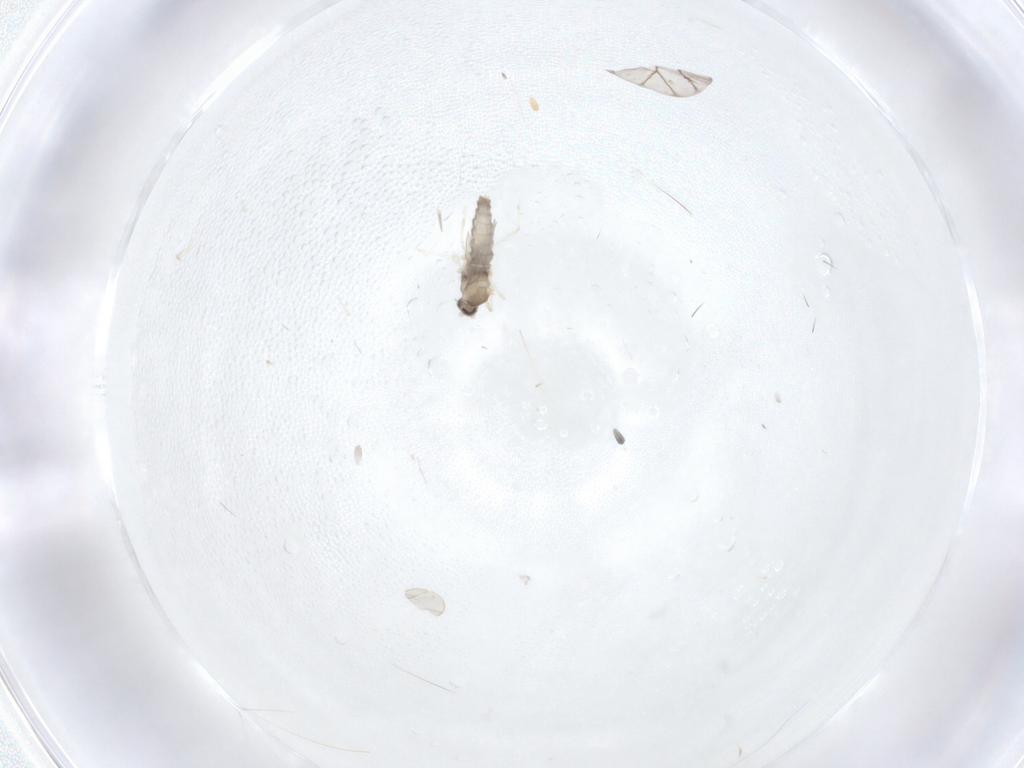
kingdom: Animalia
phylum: Arthropoda
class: Insecta
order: Diptera
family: Cecidomyiidae
